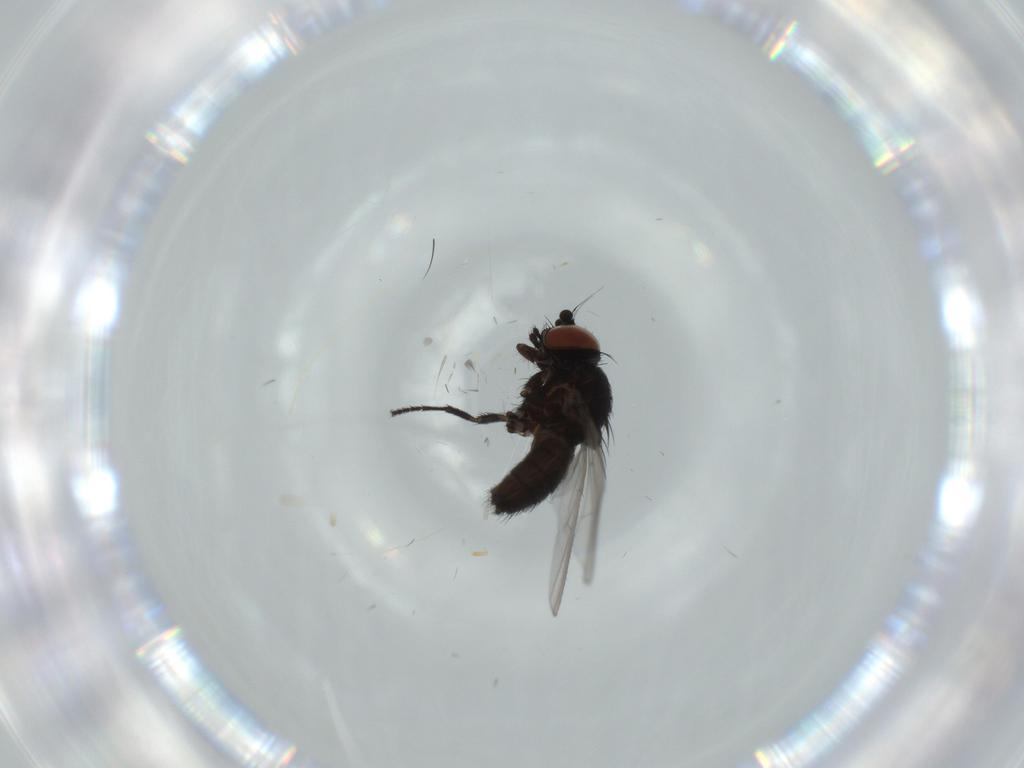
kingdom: Animalia
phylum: Arthropoda
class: Insecta
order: Diptera
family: Milichiidae
